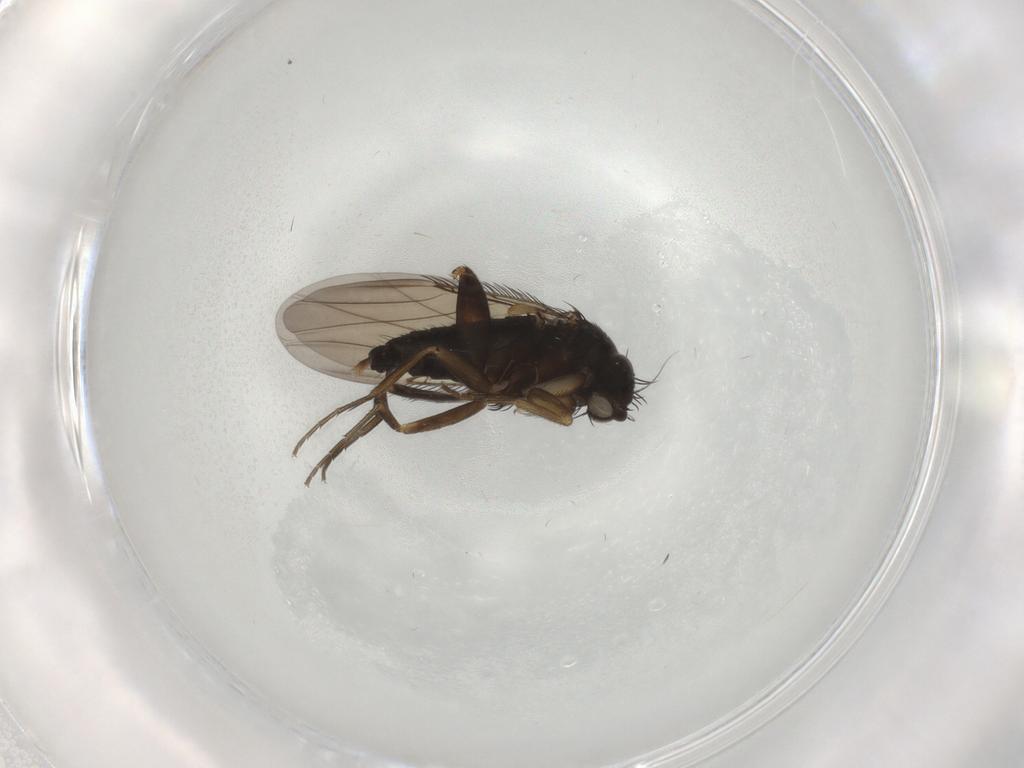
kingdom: Animalia
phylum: Arthropoda
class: Insecta
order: Diptera
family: Phoridae
